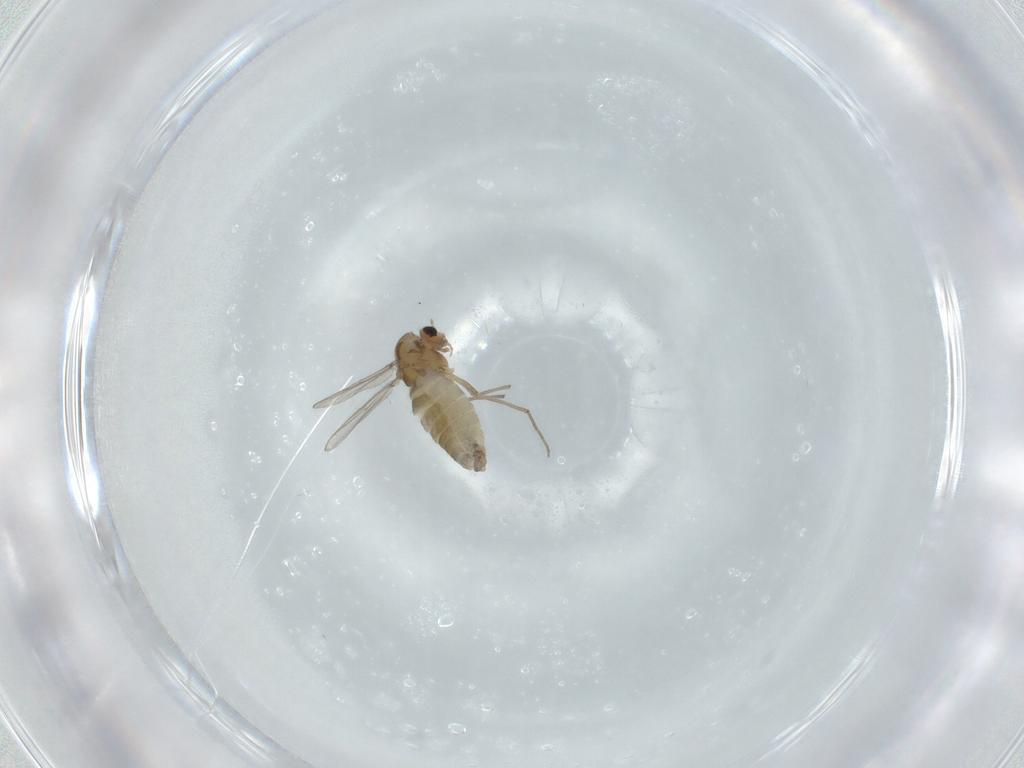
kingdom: Animalia
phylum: Arthropoda
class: Insecta
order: Diptera
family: Chironomidae
